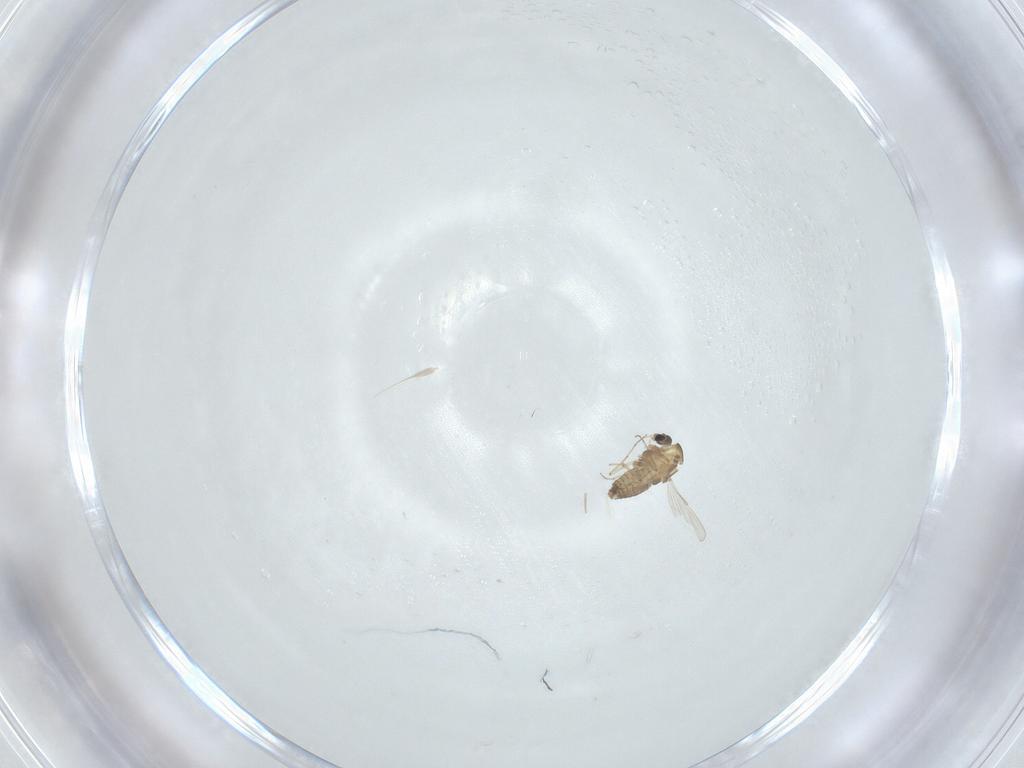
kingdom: Animalia
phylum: Arthropoda
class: Insecta
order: Hymenoptera
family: Encyrtidae
